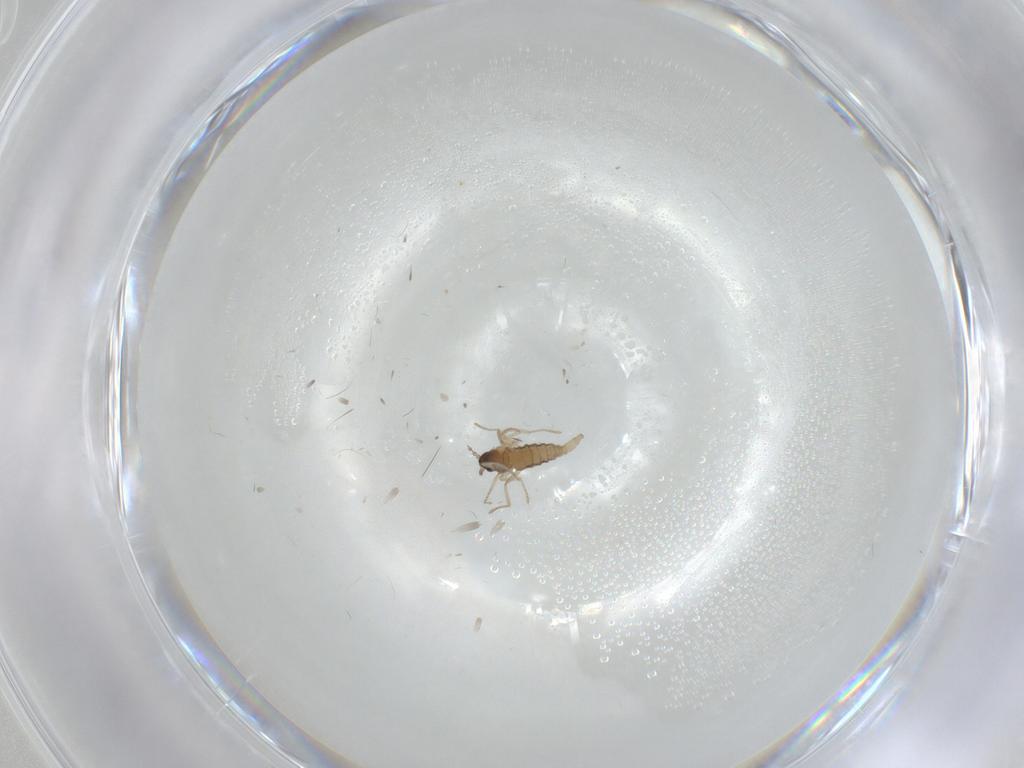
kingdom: Animalia
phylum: Arthropoda
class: Insecta
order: Diptera
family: Cecidomyiidae
